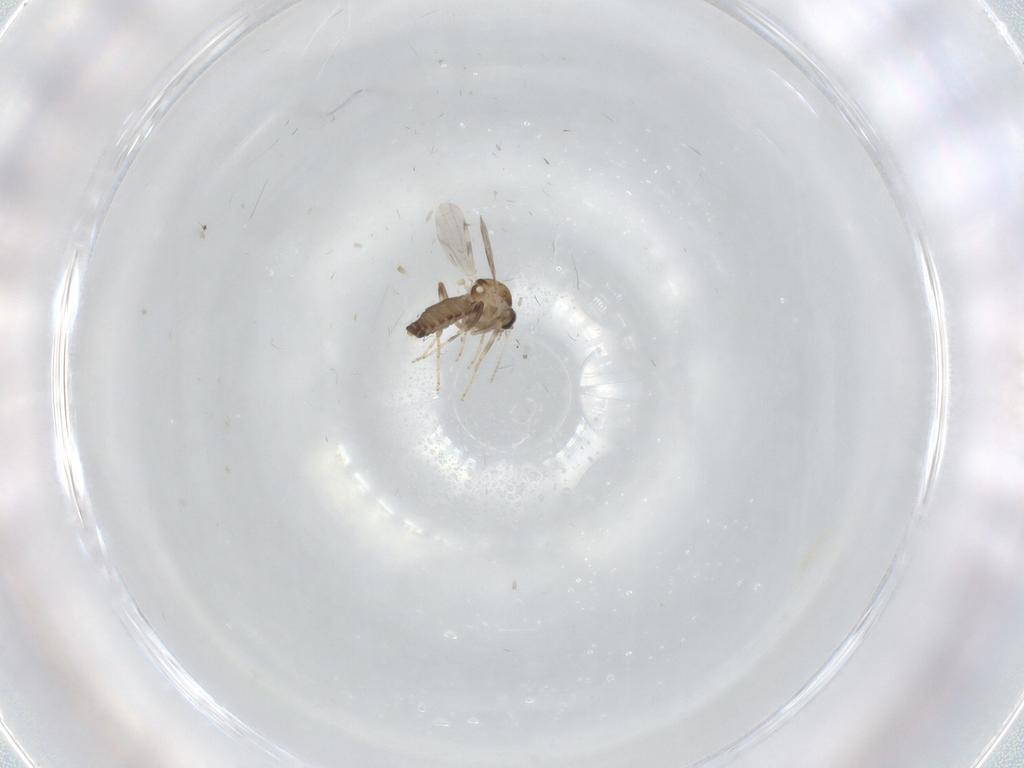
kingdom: Animalia
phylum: Arthropoda
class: Insecta
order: Diptera
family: Ceratopogonidae
